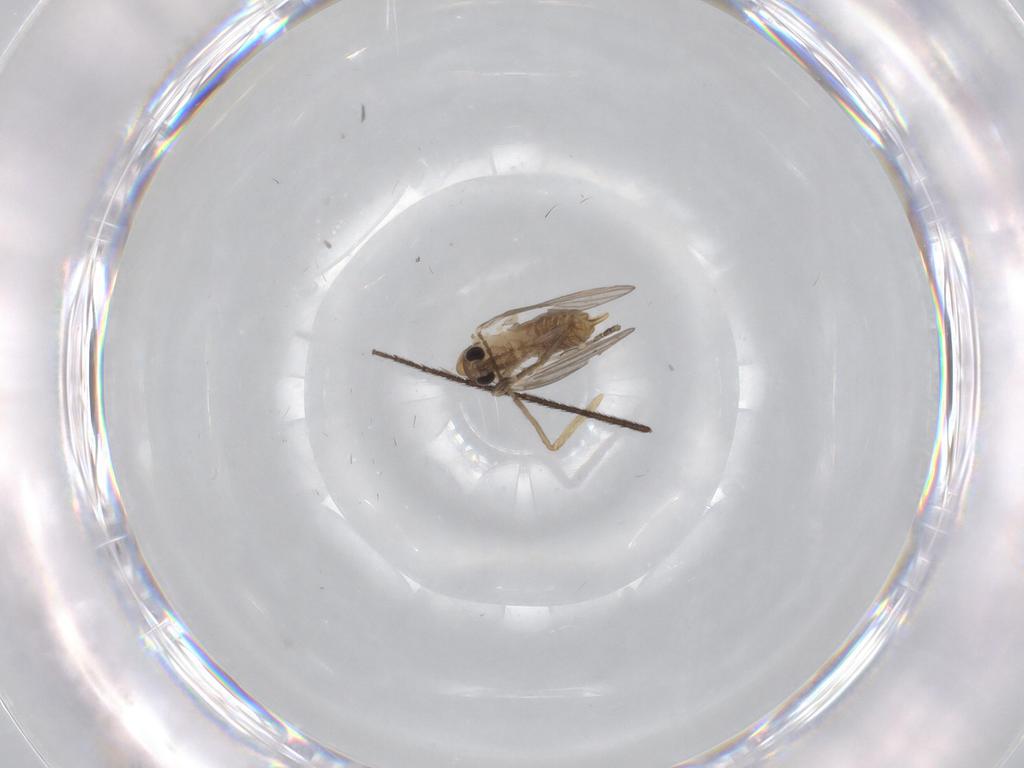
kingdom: Animalia
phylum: Arthropoda
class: Insecta
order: Diptera
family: Ditomyiidae
